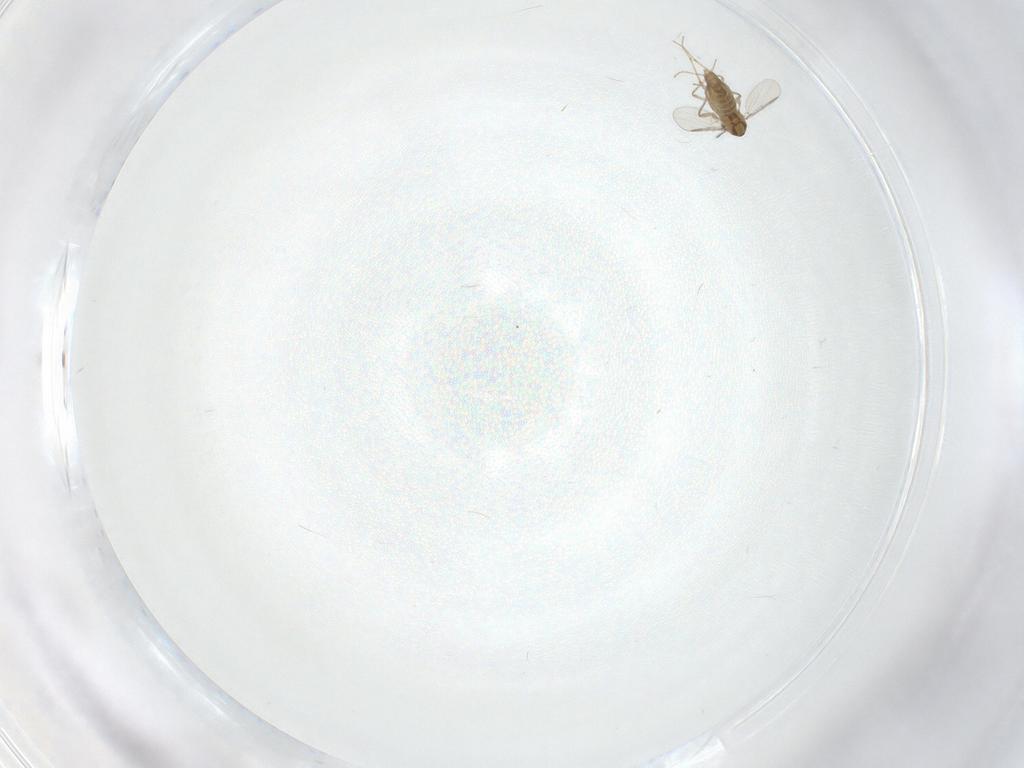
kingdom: Animalia
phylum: Arthropoda
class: Insecta
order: Diptera
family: Chironomidae
